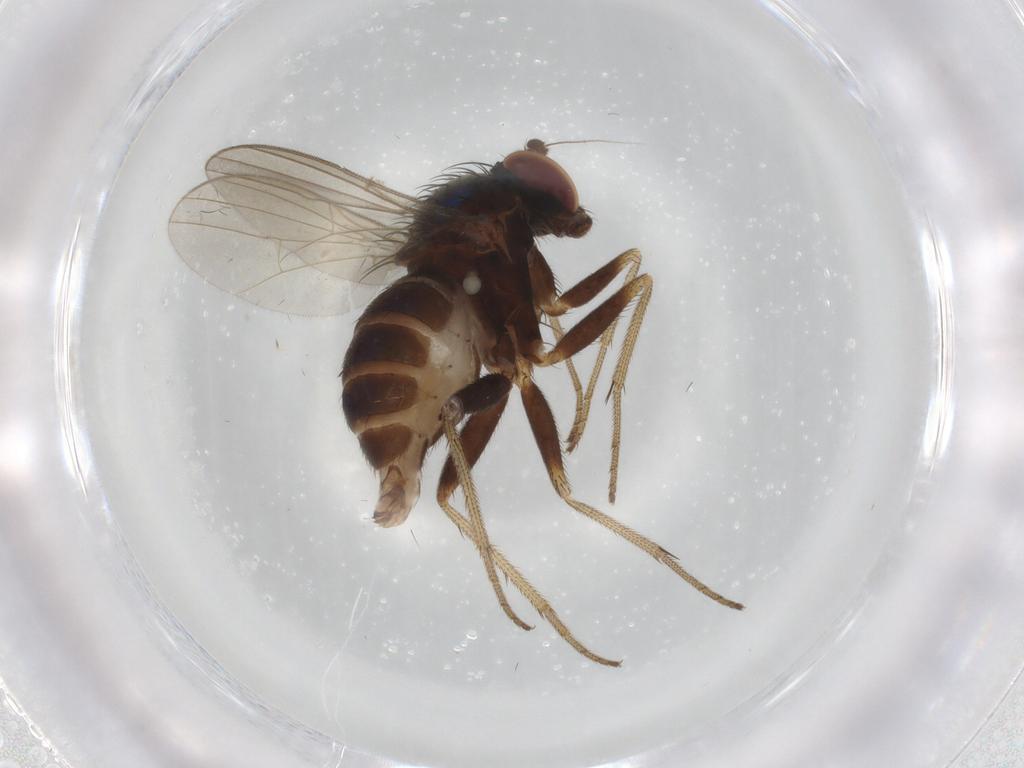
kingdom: Animalia
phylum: Arthropoda
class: Insecta
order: Diptera
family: Dolichopodidae
